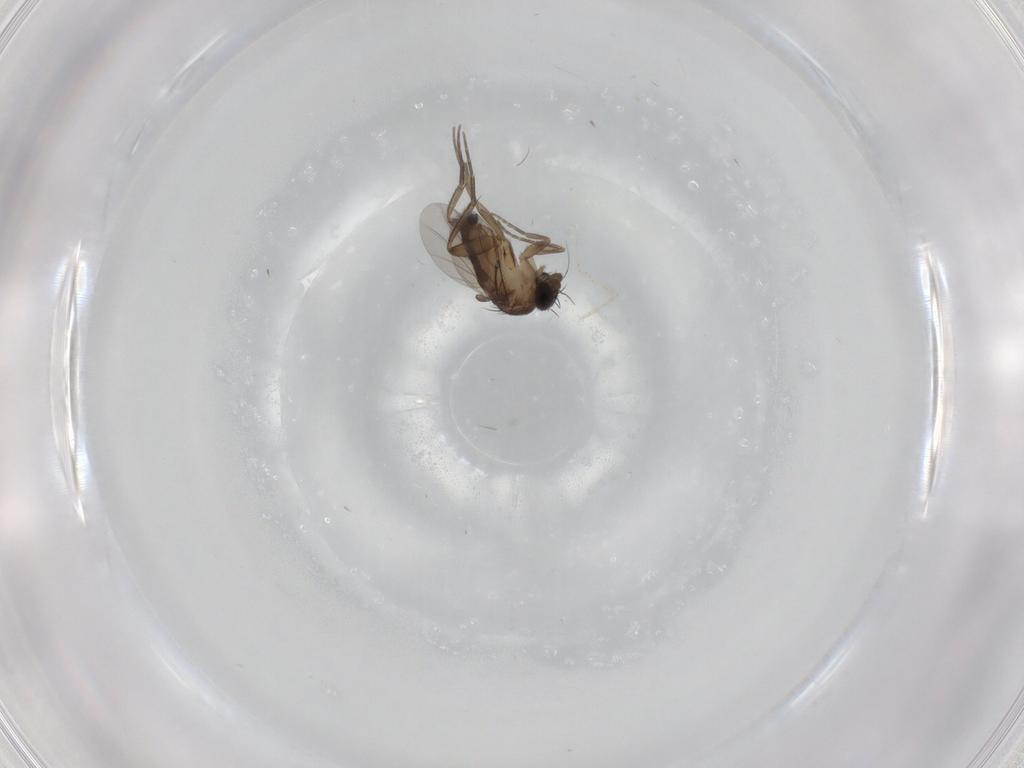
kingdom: Animalia
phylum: Arthropoda
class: Insecta
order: Diptera
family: Phoridae
